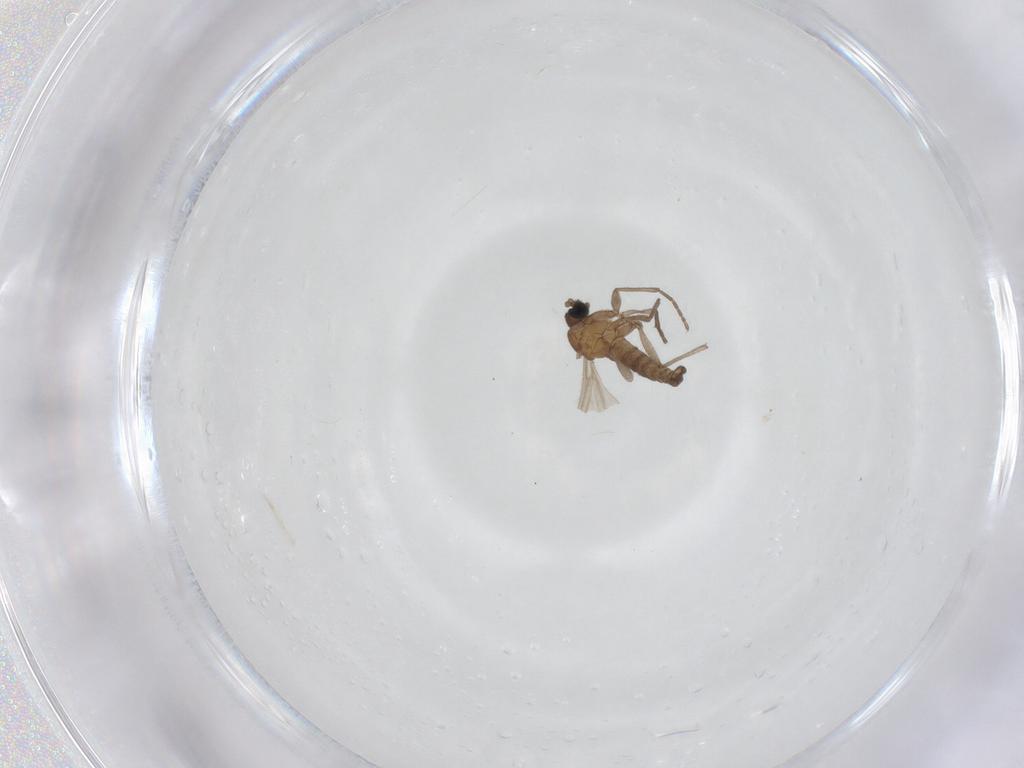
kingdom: Animalia
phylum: Arthropoda
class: Insecta
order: Diptera
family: Sciaridae
